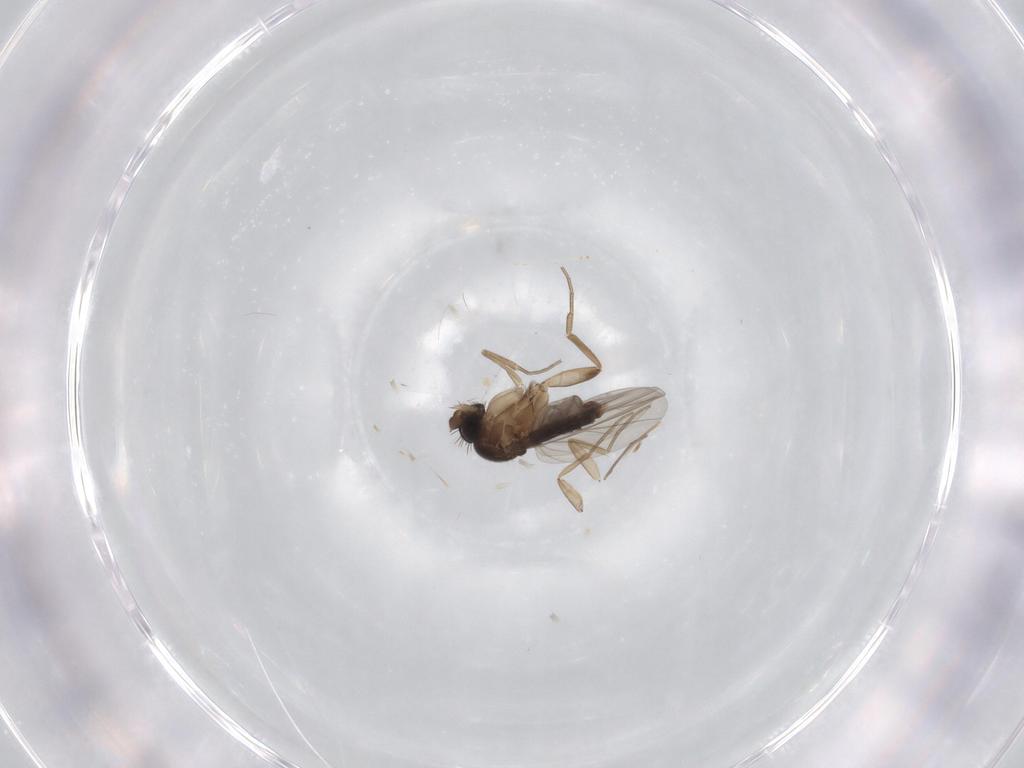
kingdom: Animalia
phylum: Arthropoda
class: Insecta
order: Diptera
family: Phoridae
